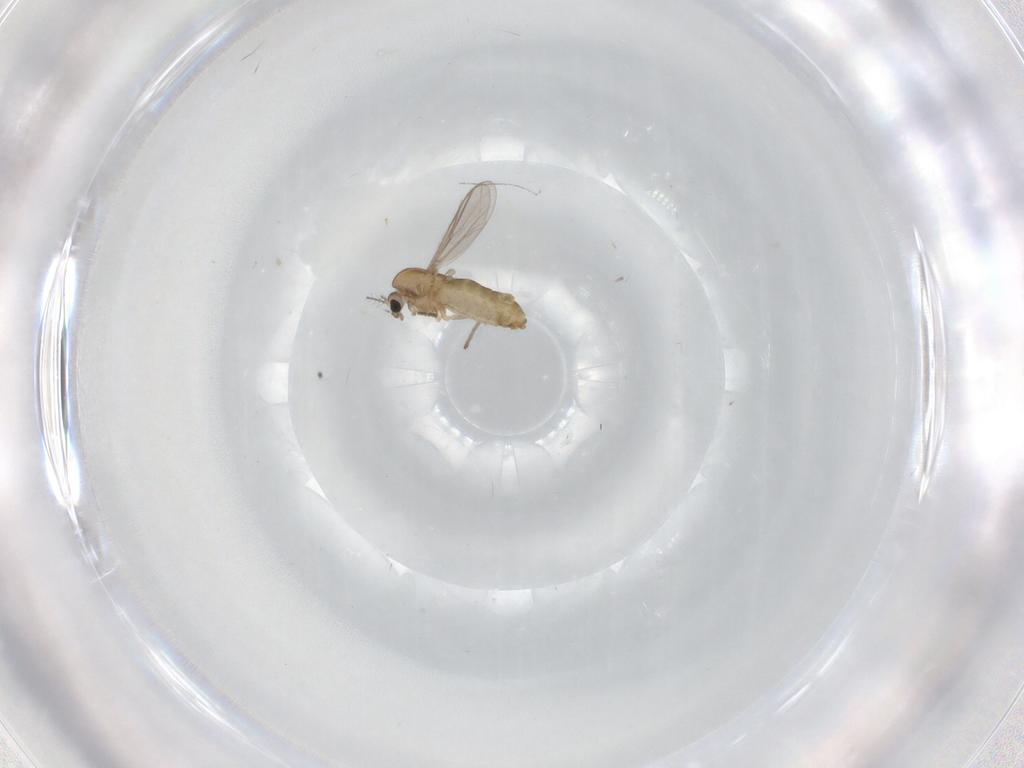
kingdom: Animalia
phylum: Arthropoda
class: Insecta
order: Diptera
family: Chironomidae
